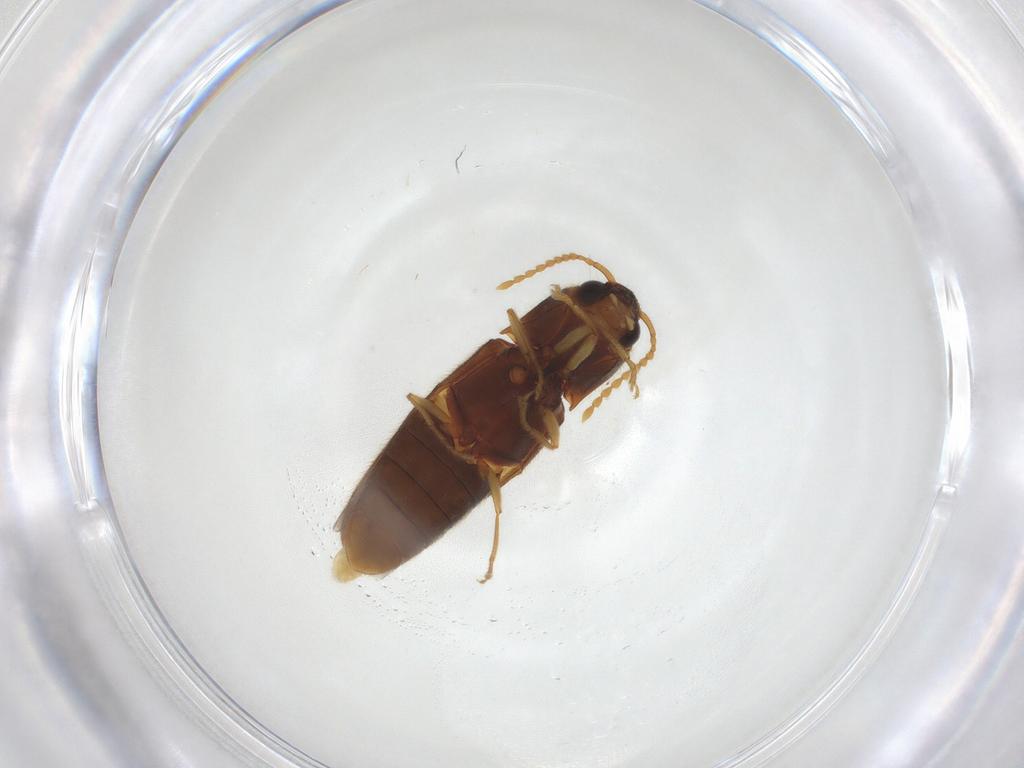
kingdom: Animalia
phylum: Arthropoda
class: Insecta
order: Coleoptera
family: Elateridae
